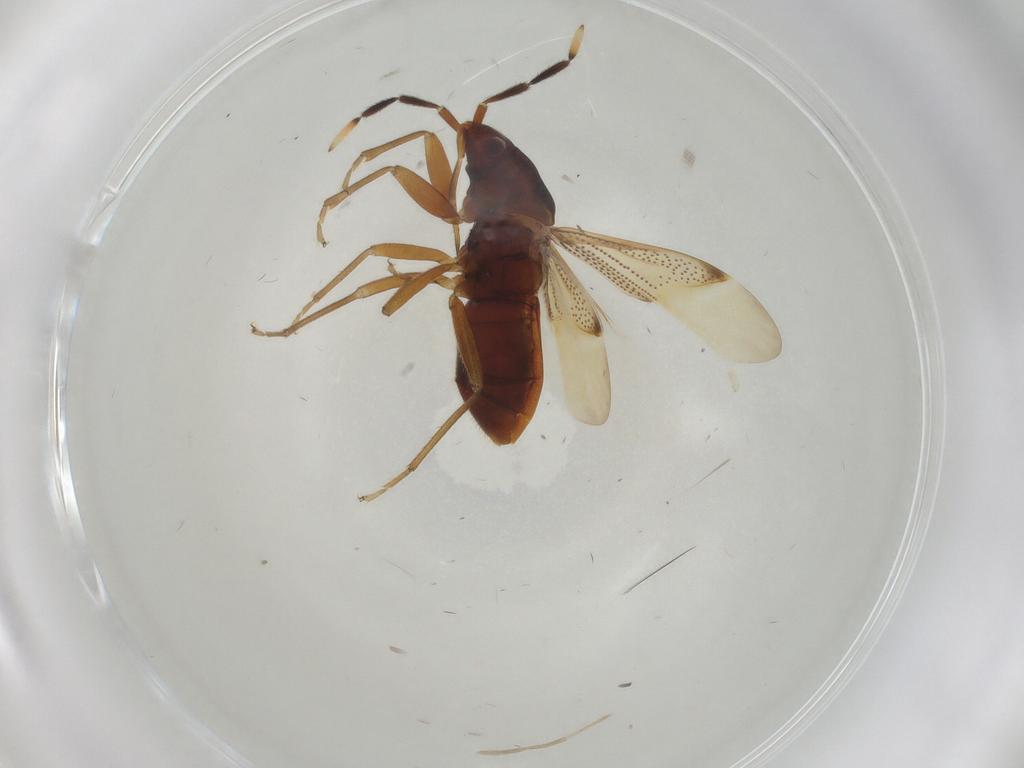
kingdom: Animalia
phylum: Arthropoda
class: Insecta
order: Hemiptera
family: Rhyparochromidae
